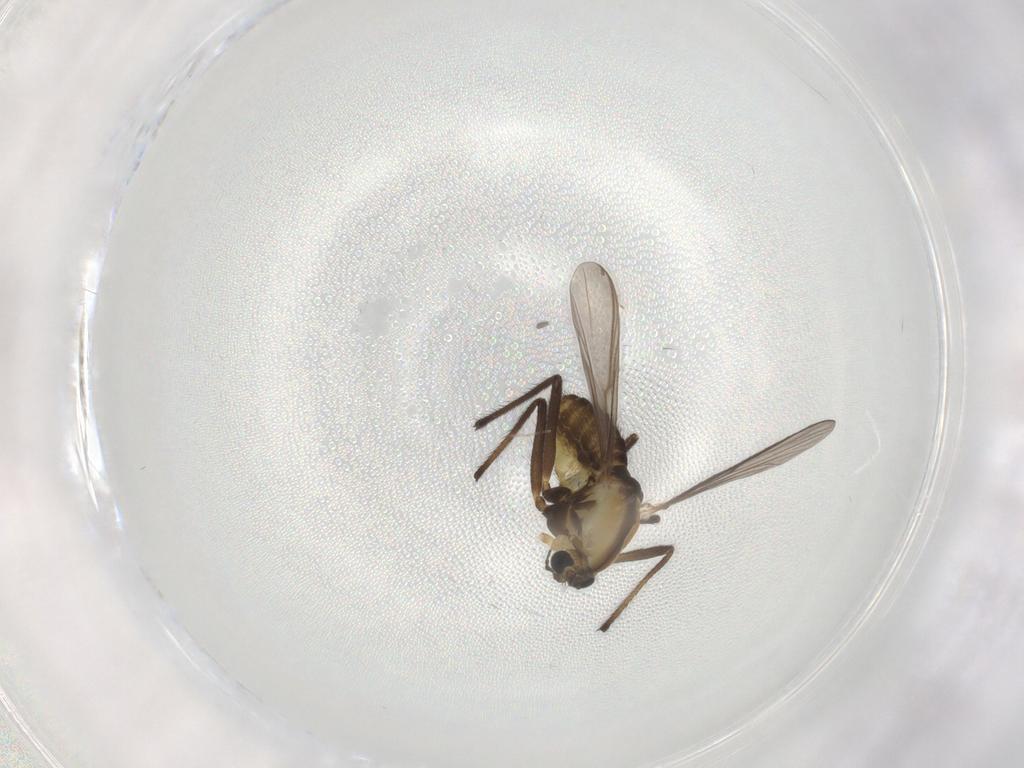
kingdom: Animalia
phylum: Arthropoda
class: Insecta
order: Diptera
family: Chironomidae
